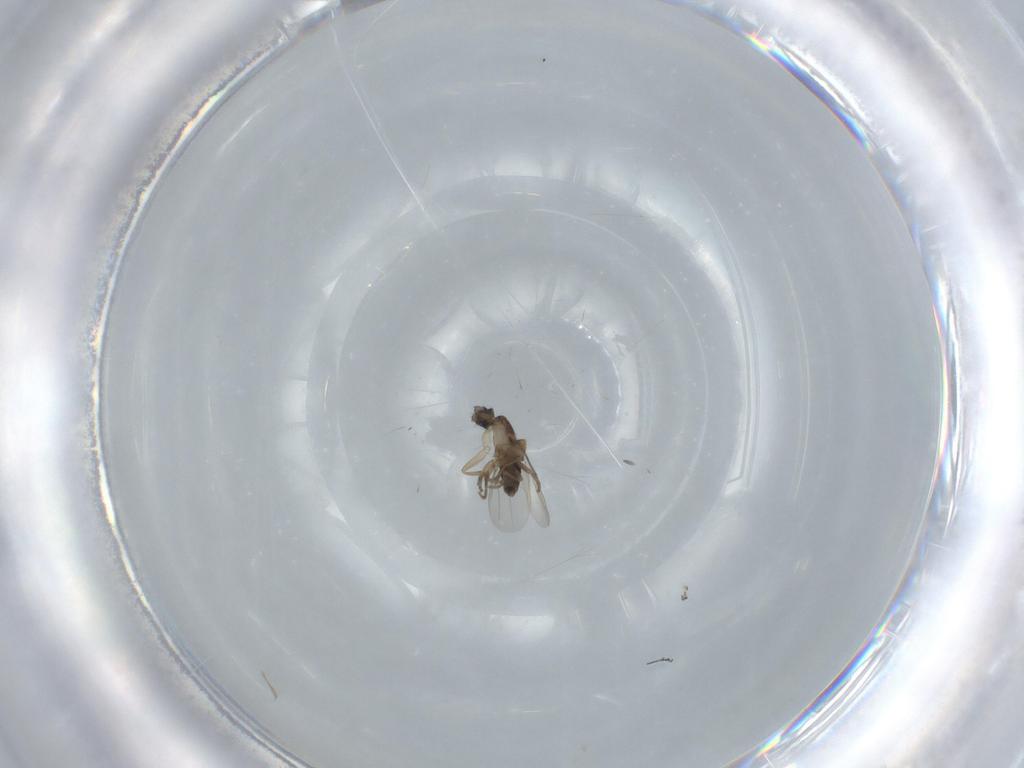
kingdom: Animalia
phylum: Arthropoda
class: Insecta
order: Diptera
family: Phoridae
